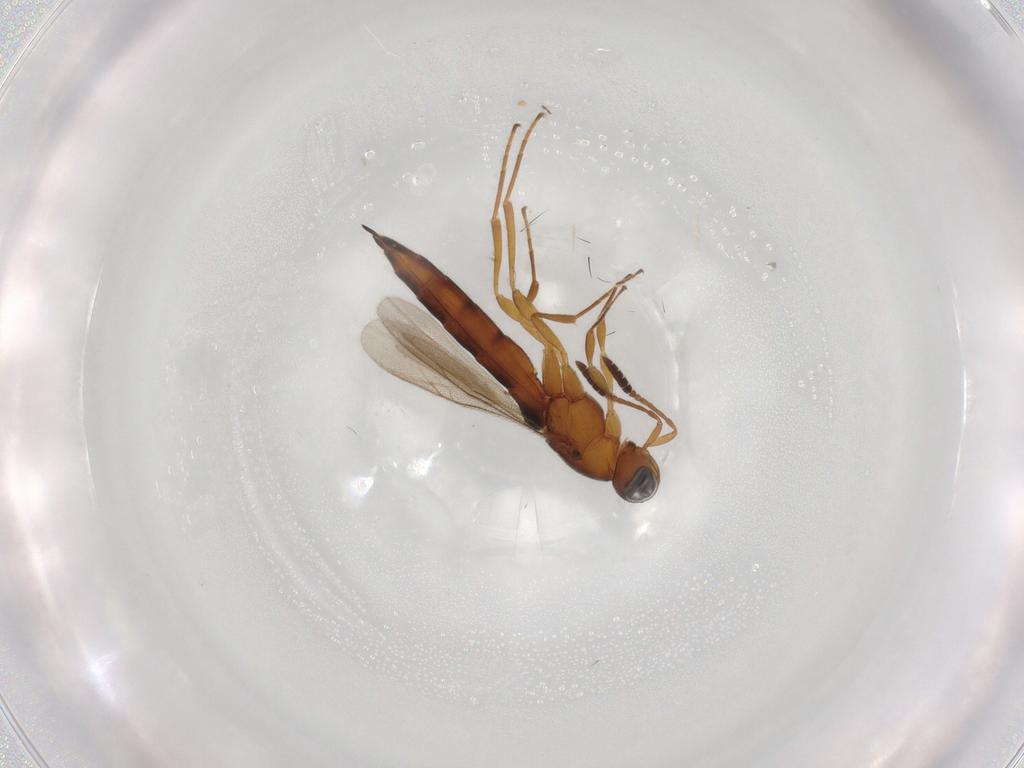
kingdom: Animalia
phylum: Arthropoda
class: Insecta
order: Hymenoptera
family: Scelionidae
